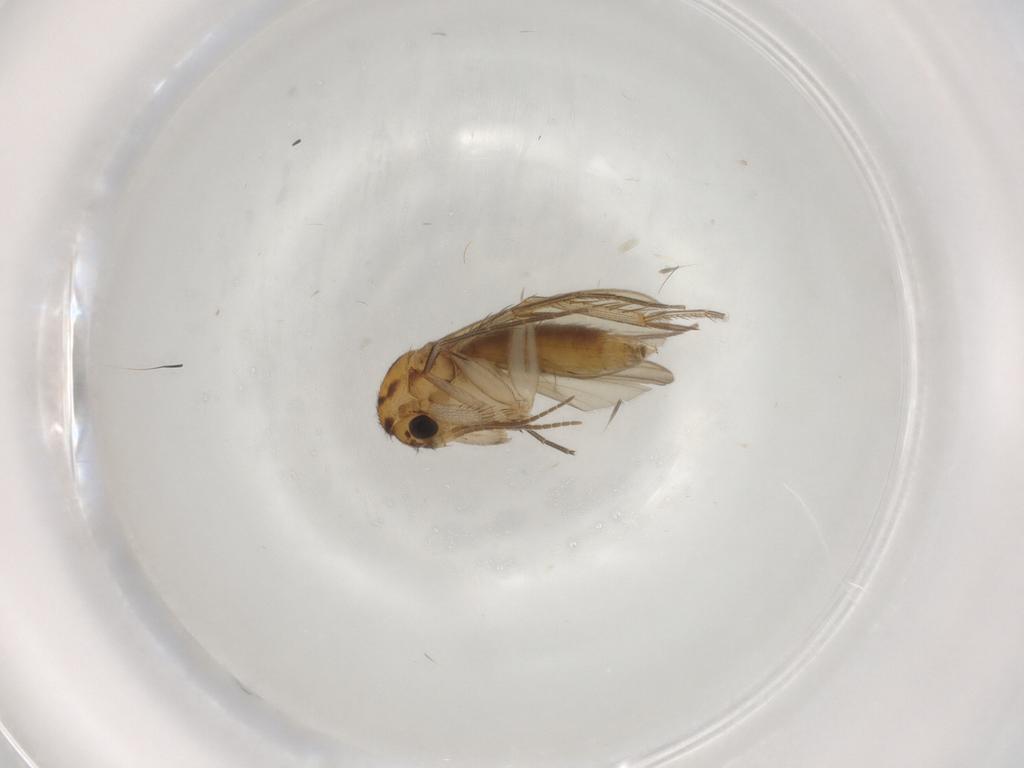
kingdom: Animalia
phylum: Arthropoda
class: Insecta
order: Diptera
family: Mycetophilidae
